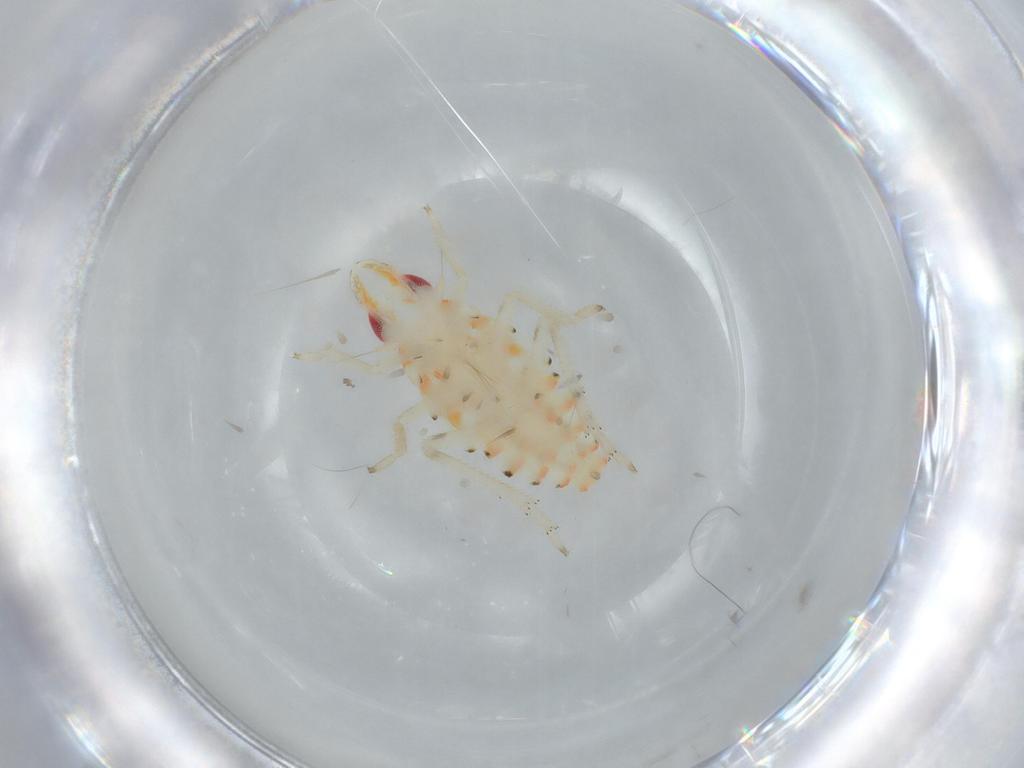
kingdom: Animalia
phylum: Arthropoda
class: Insecta
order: Hemiptera
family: Tropiduchidae
